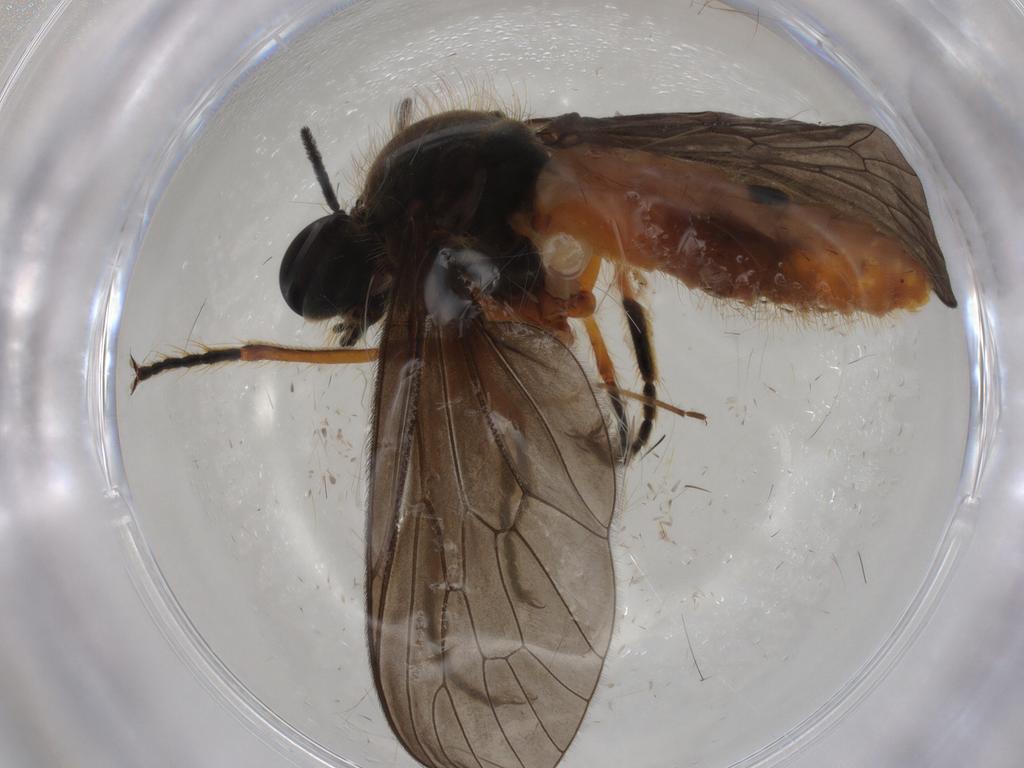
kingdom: Animalia
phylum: Arthropoda
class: Insecta
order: Diptera
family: Asilidae
